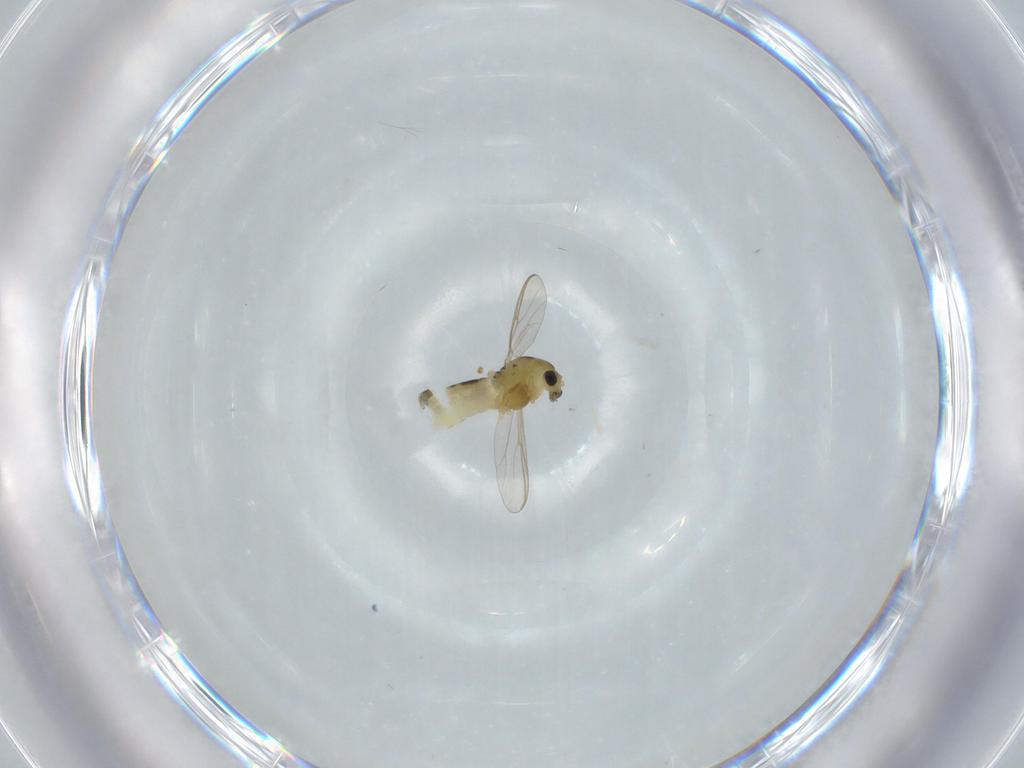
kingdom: Animalia
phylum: Arthropoda
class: Insecta
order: Diptera
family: Chironomidae
